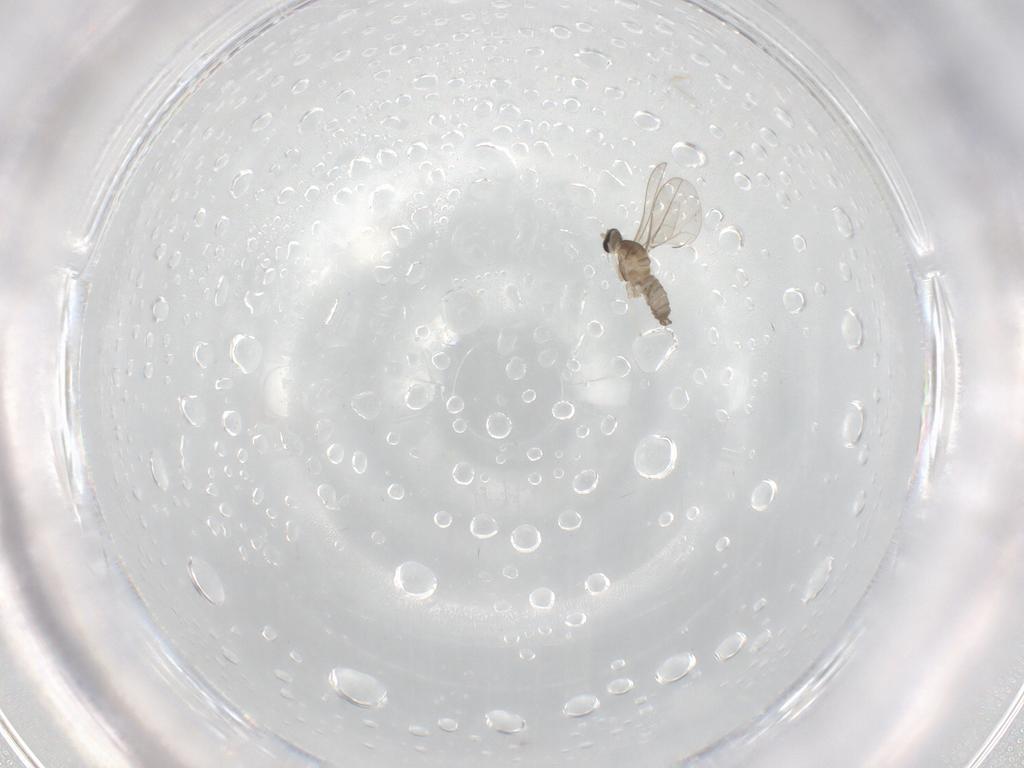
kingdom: Animalia
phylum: Arthropoda
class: Insecta
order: Diptera
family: Cecidomyiidae
